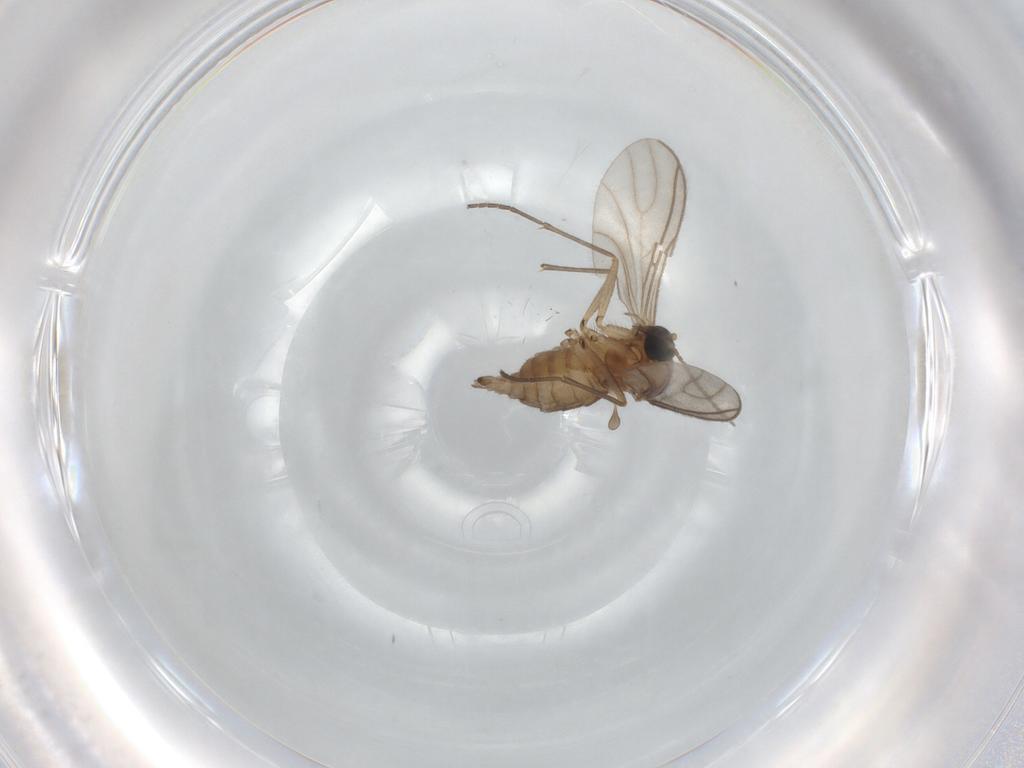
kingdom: Animalia
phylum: Arthropoda
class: Insecta
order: Diptera
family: Sciaridae
